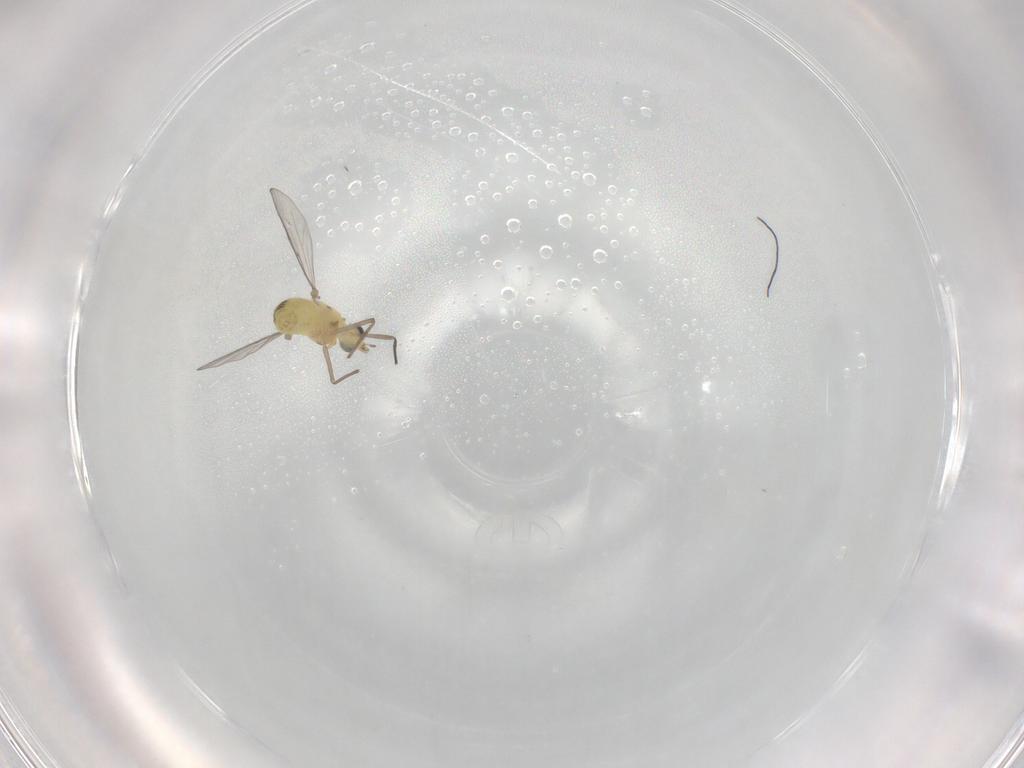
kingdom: Animalia
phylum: Arthropoda
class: Insecta
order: Diptera
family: Chironomidae
